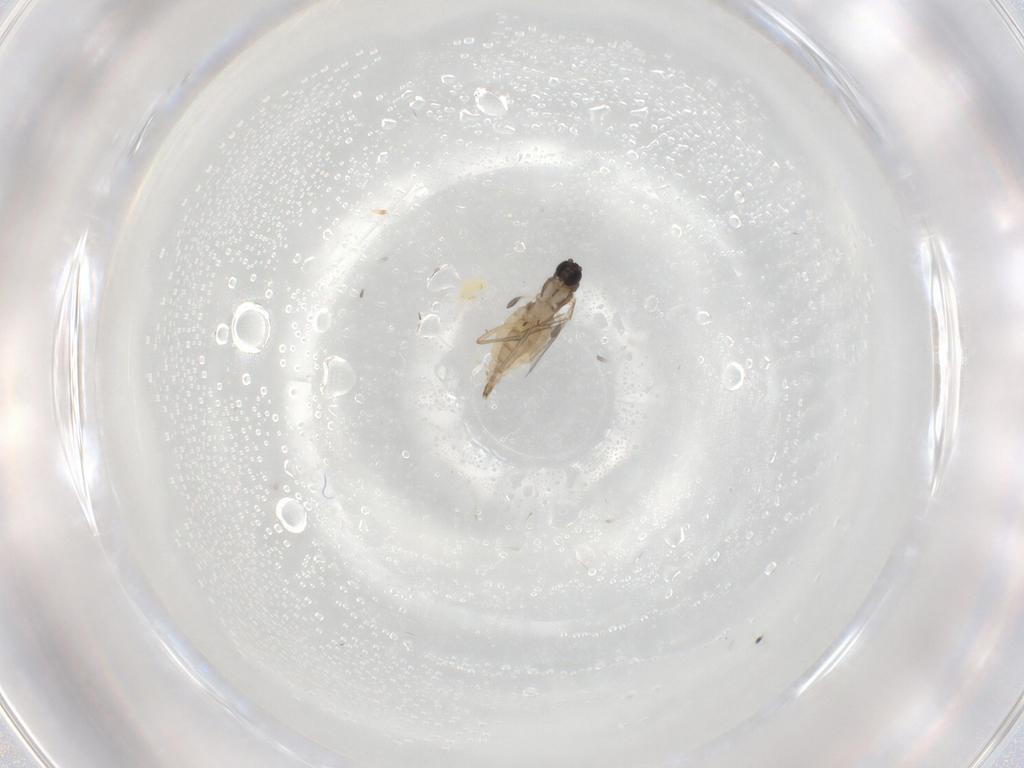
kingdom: Animalia
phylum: Arthropoda
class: Insecta
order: Diptera
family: Sciaridae
